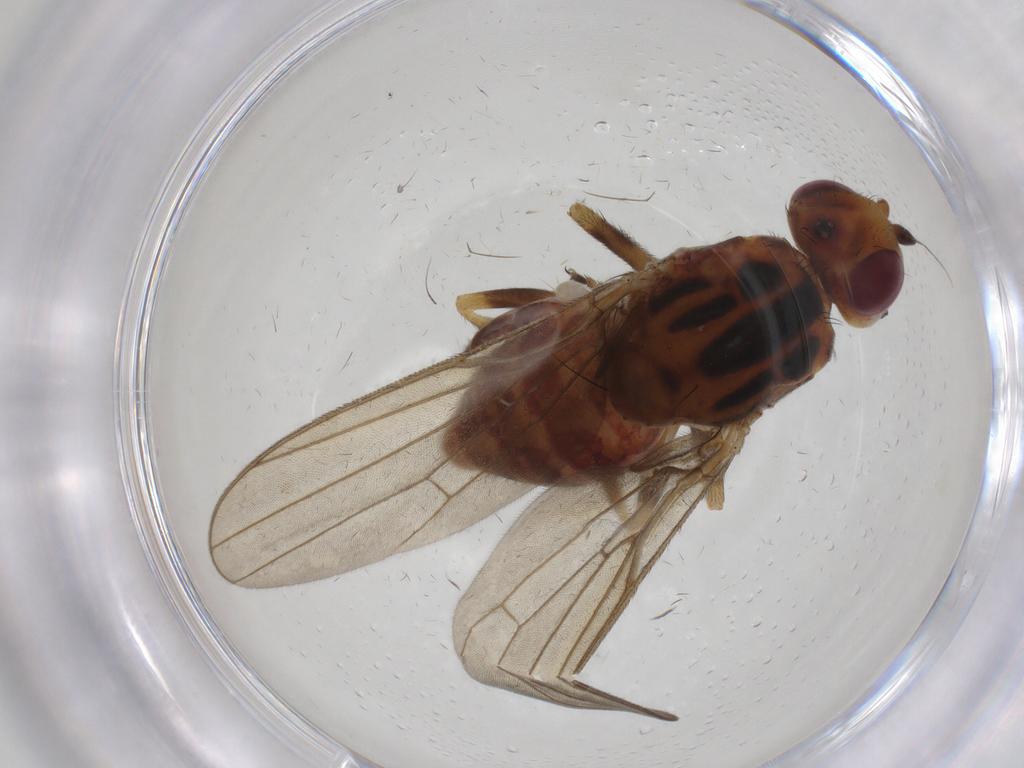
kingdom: Animalia
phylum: Arthropoda
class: Insecta
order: Diptera
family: Chloropidae
